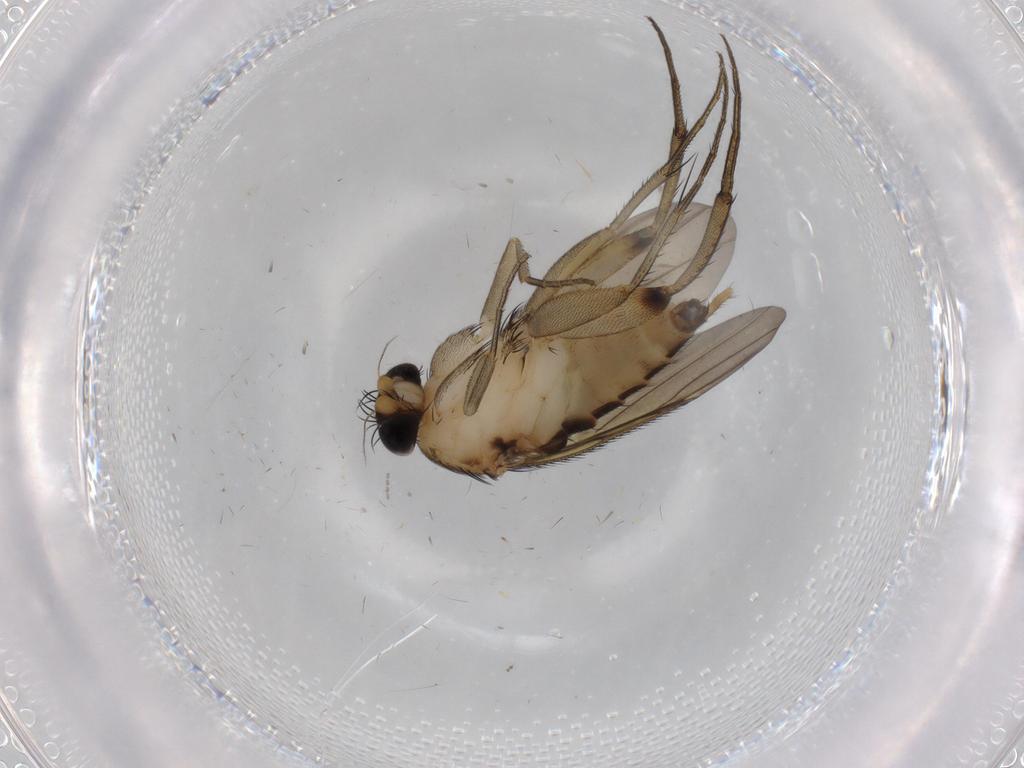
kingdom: Animalia
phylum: Arthropoda
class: Insecta
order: Diptera
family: Phoridae
